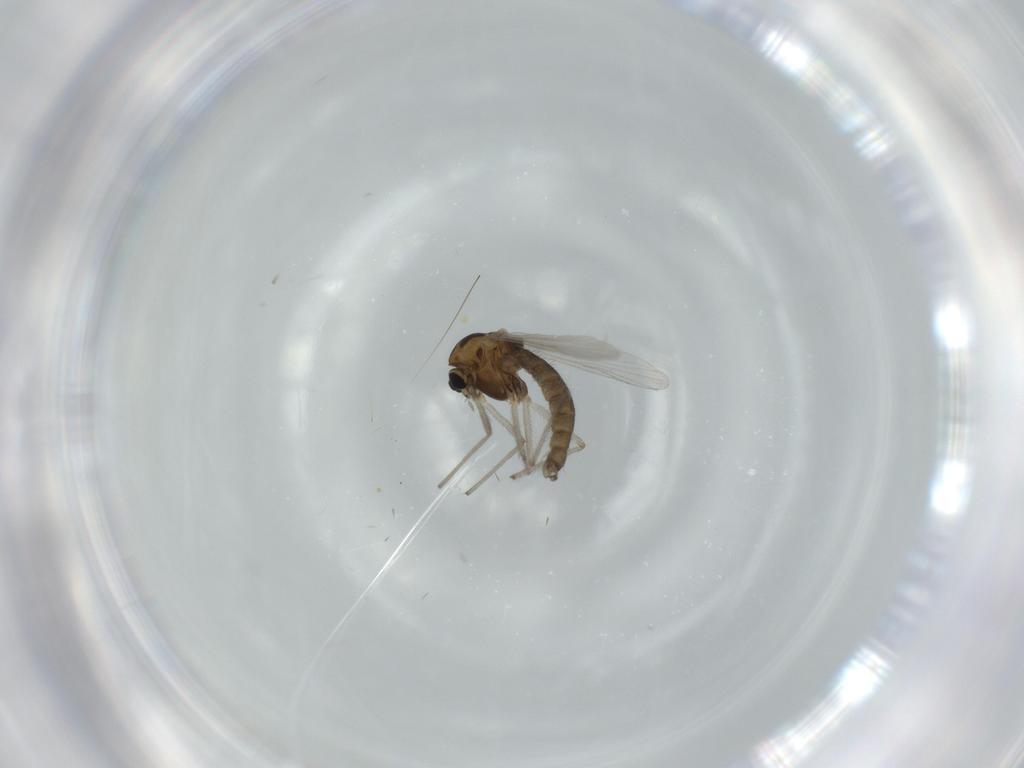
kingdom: Animalia
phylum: Arthropoda
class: Insecta
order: Diptera
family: Chironomidae
